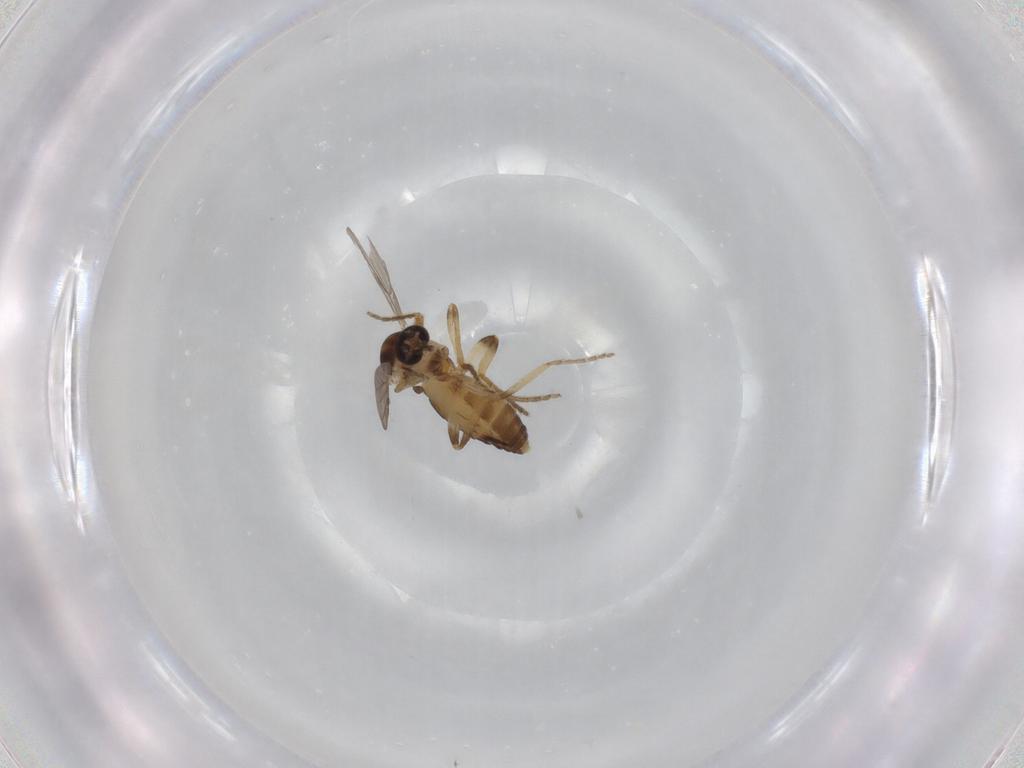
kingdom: Animalia
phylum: Arthropoda
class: Insecta
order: Diptera
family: Ceratopogonidae
